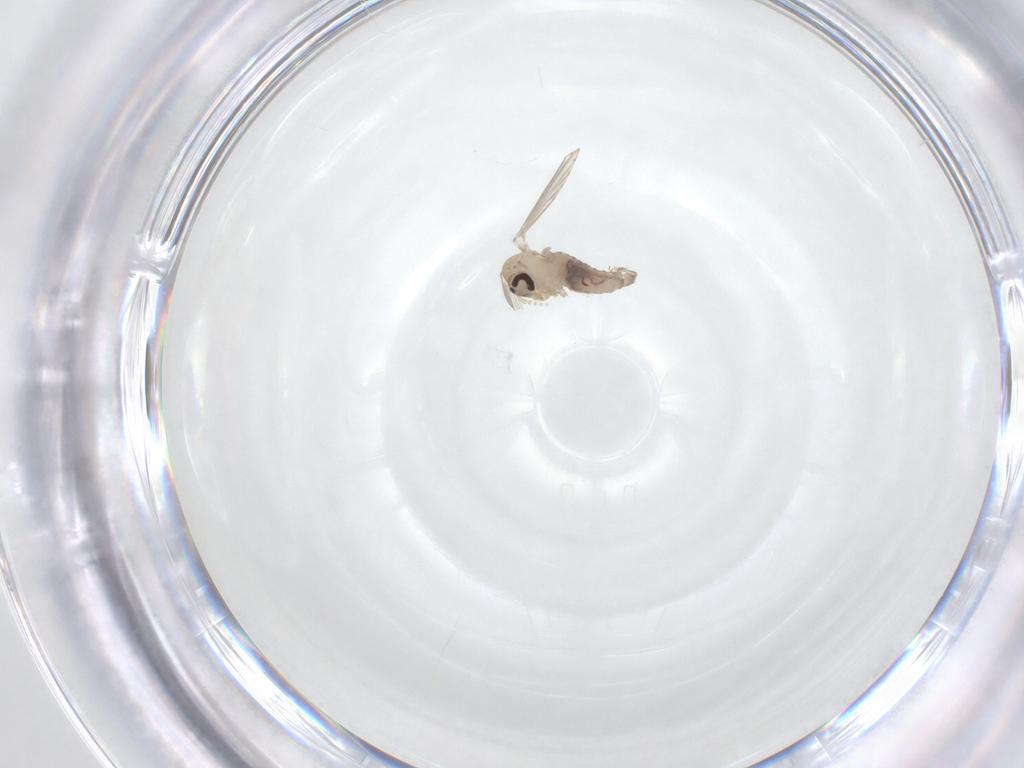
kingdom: Animalia
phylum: Arthropoda
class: Insecta
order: Diptera
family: Psychodidae
